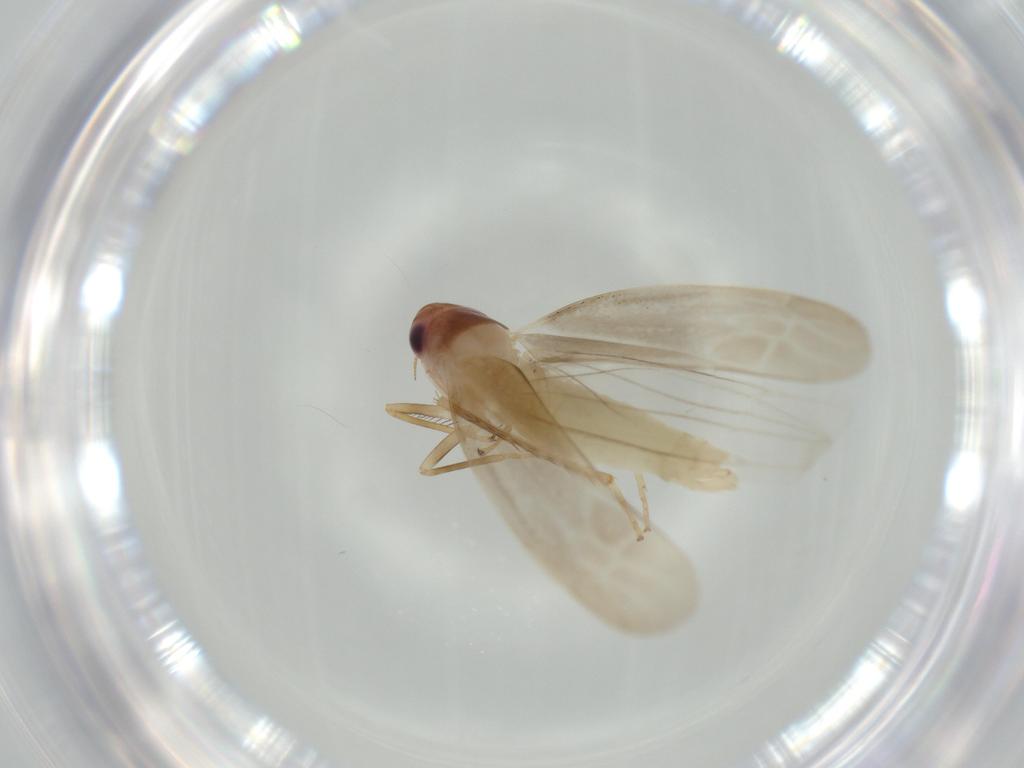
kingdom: Animalia
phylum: Arthropoda
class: Insecta
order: Hemiptera
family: Cicadellidae
